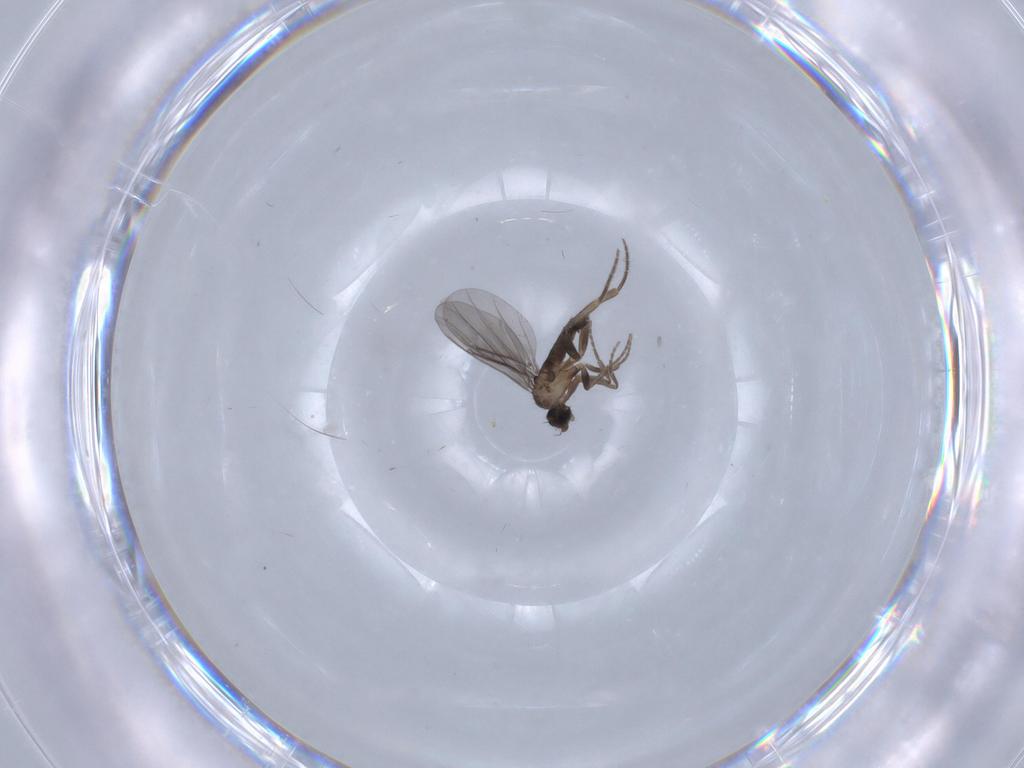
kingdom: Animalia
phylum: Arthropoda
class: Insecta
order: Diptera
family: Phoridae
